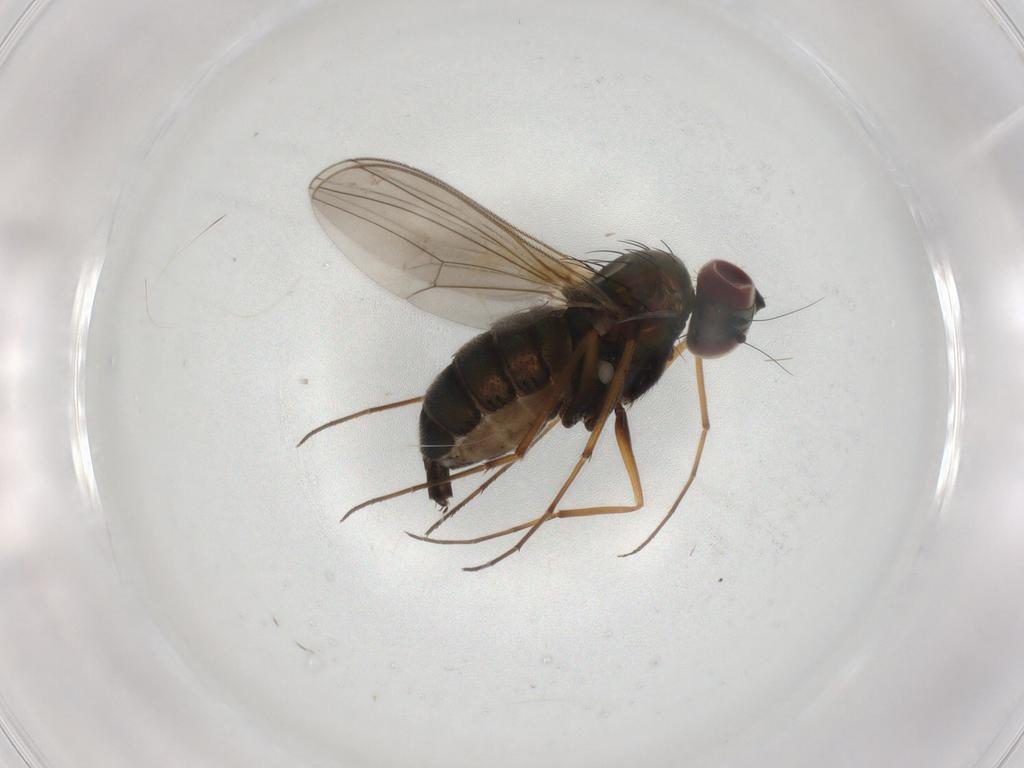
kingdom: Animalia
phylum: Arthropoda
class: Insecta
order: Diptera
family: Dolichopodidae
